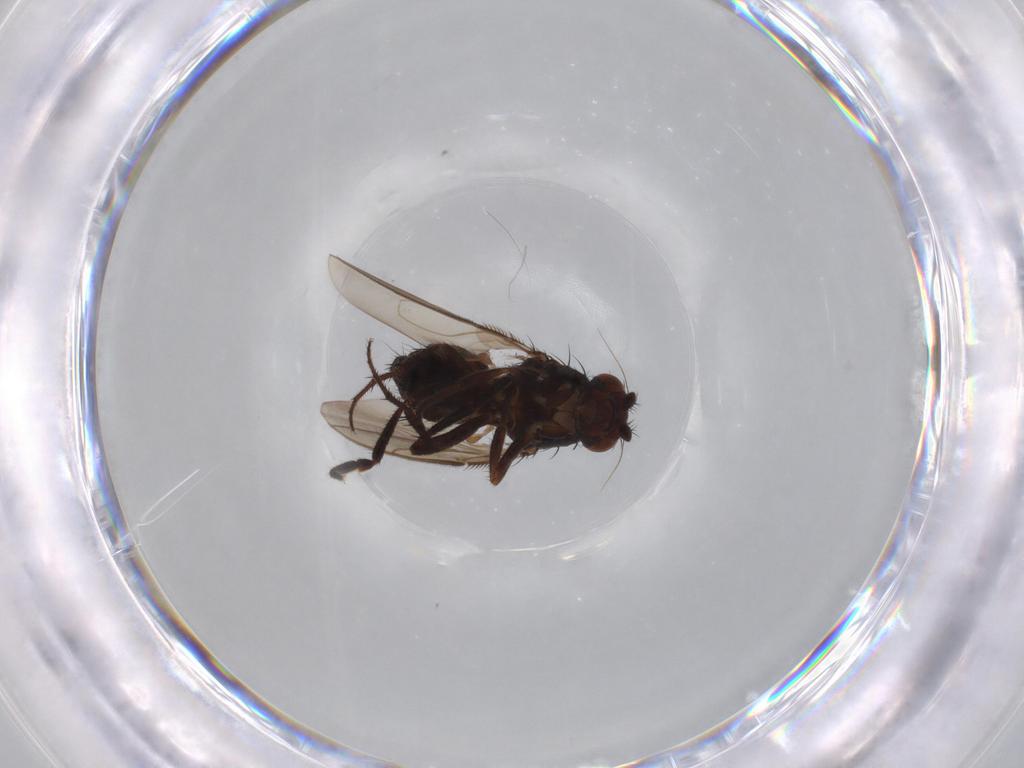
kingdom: Animalia
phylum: Arthropoda
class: Insecta
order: Diptera
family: Sphaeroceridae
